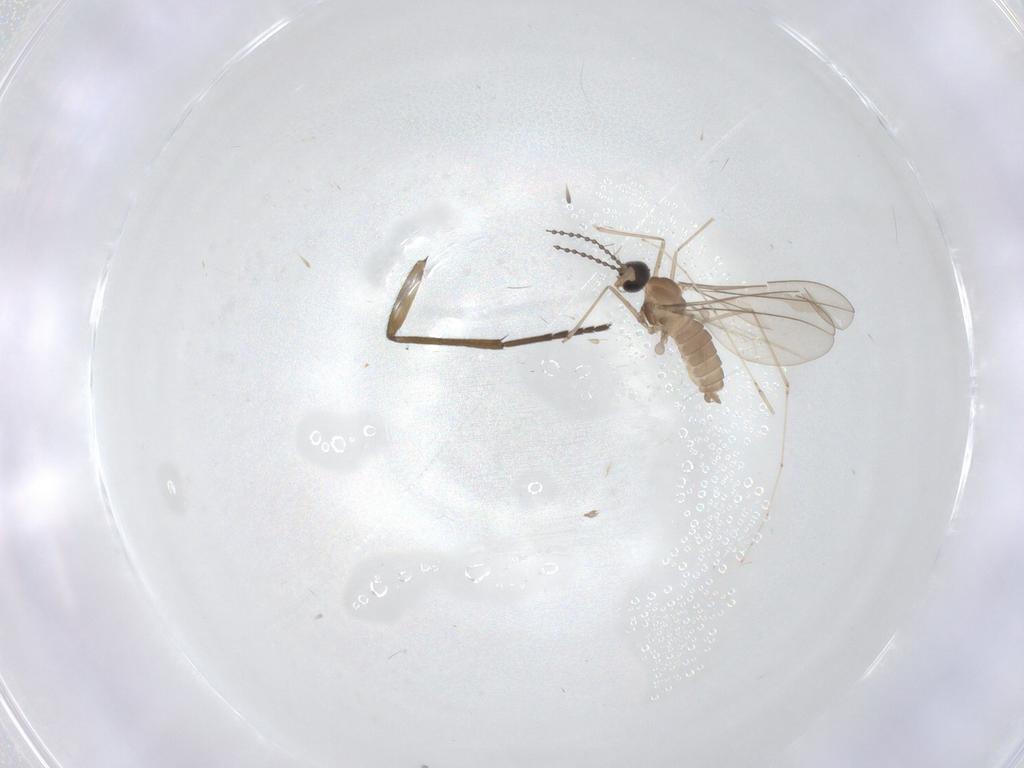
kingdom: Animalia
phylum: Arthropoda
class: Insecta
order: Diptera
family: Cecidomyiidae
